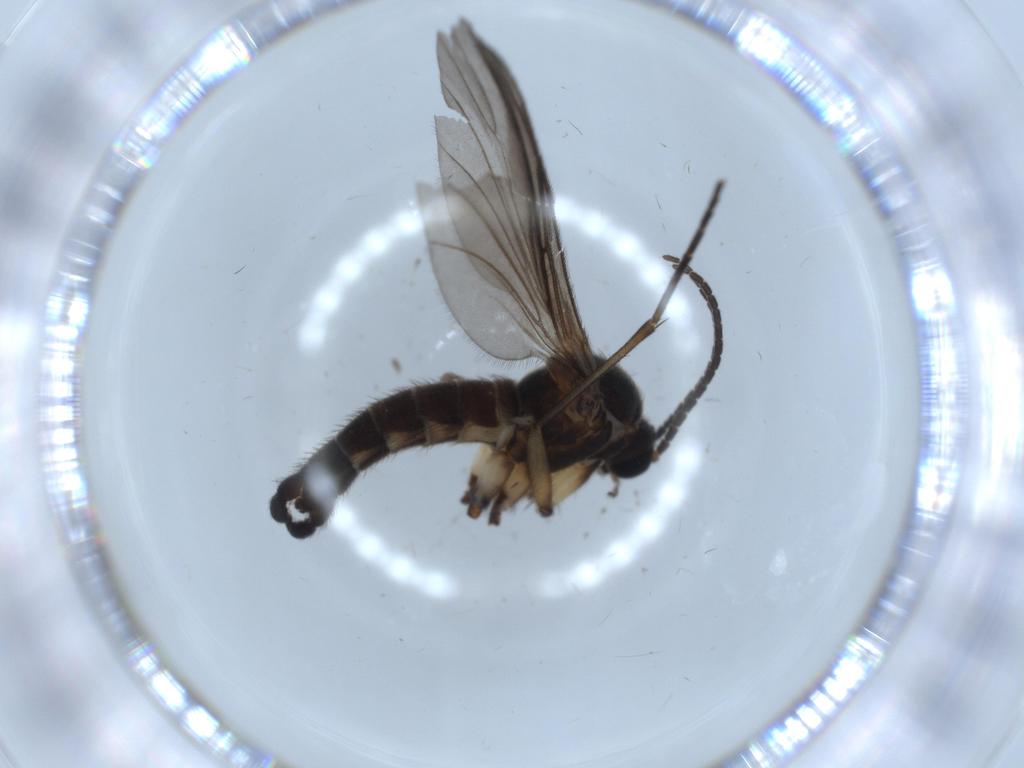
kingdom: Animalia
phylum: Arthropoda
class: Insecta
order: Diptera
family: Sciaridae
